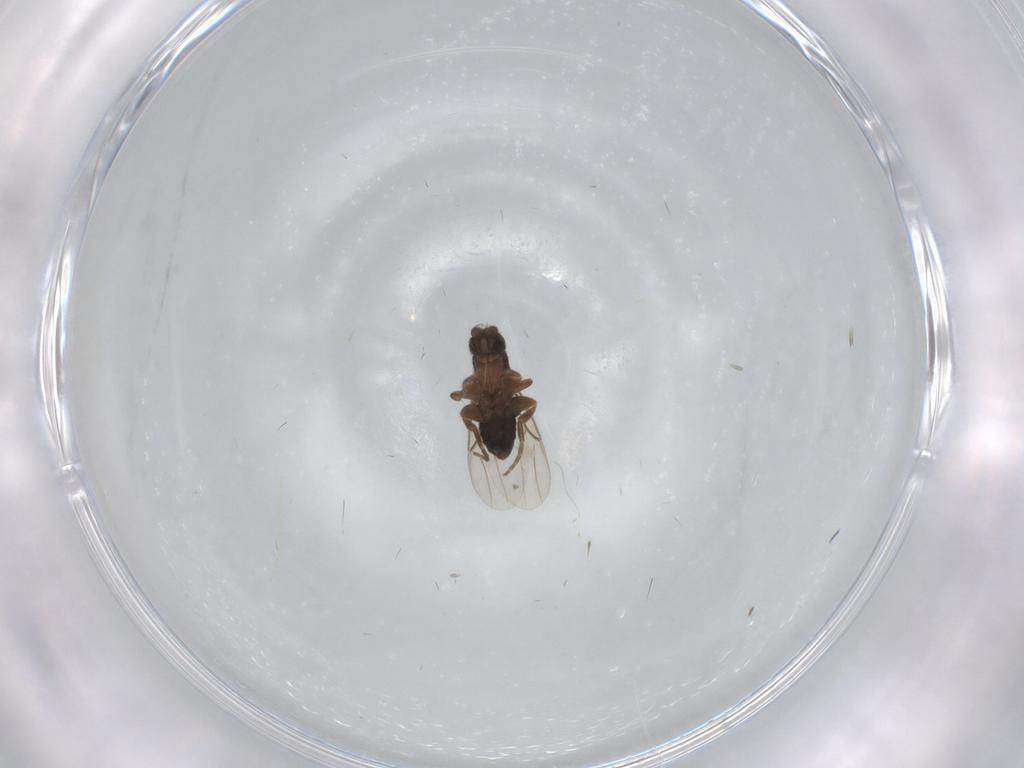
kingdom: Animalia
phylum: Arthropoda
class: Insecta
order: Diptera
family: Phoridae
